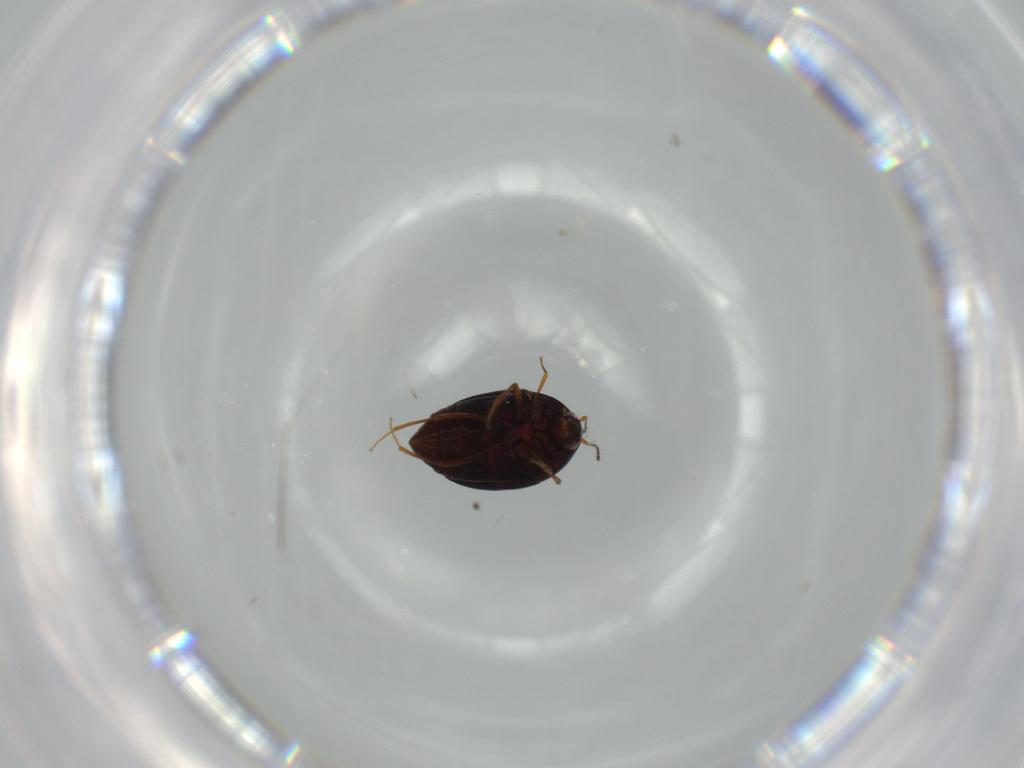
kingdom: Animalia
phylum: Arthropoda
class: Insecta
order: Coleoptera
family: Staphylinidae
